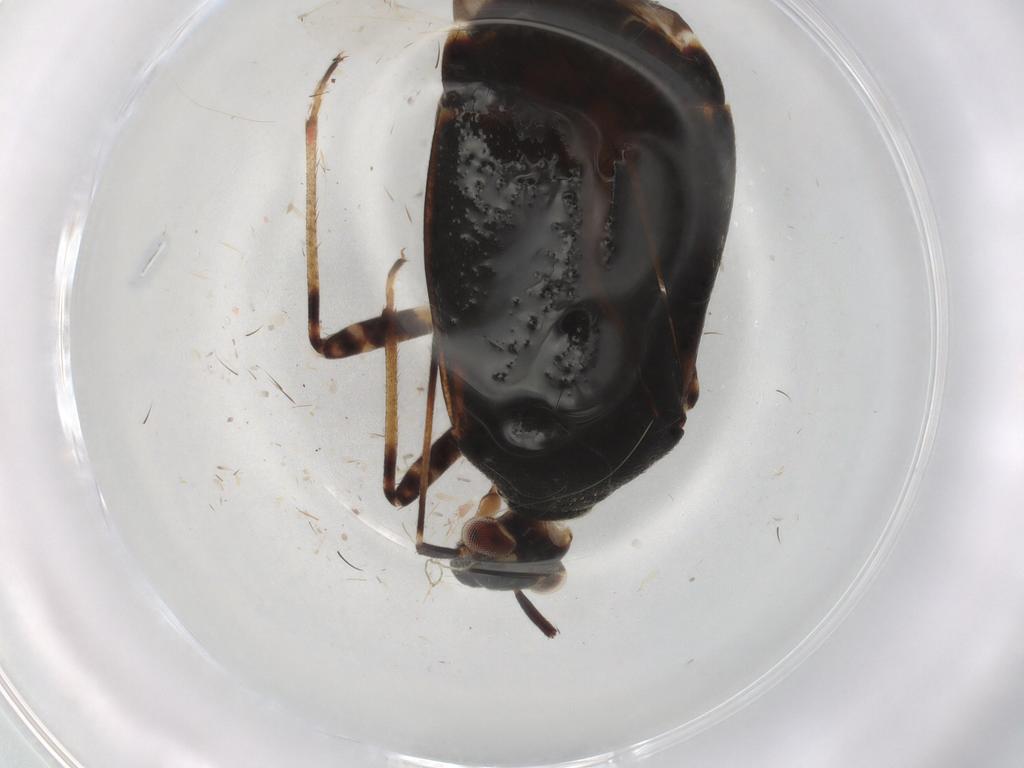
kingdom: Animalia
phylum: Arthropoda
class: Insecta
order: Hemiptera
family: Miridae
